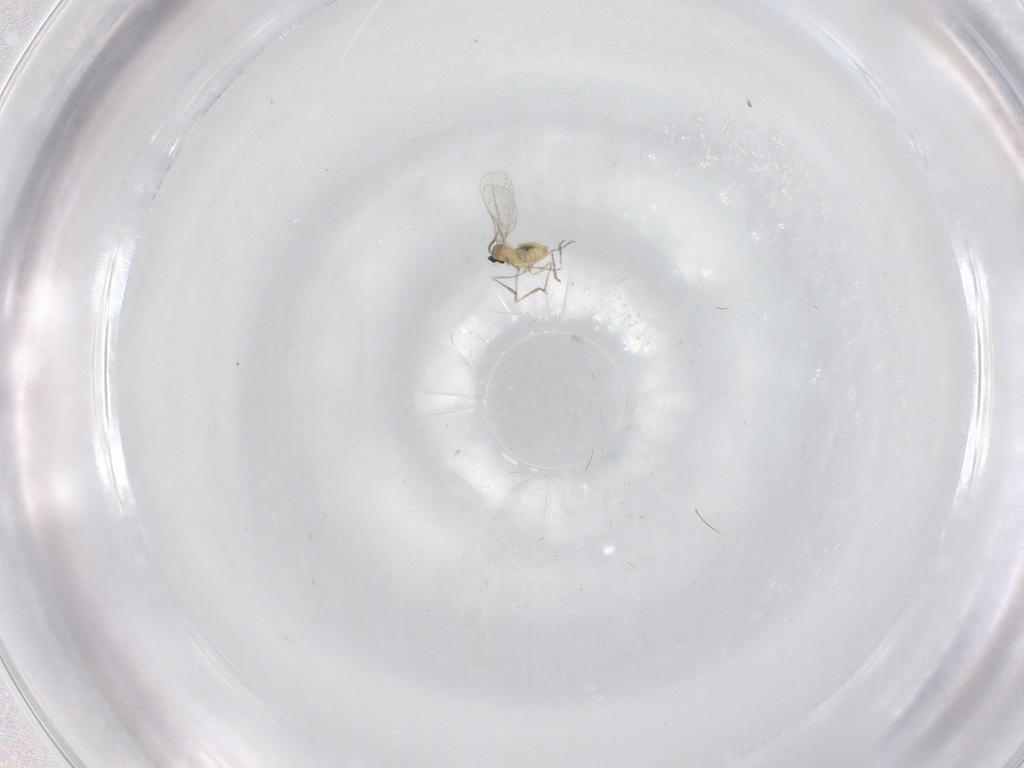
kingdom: Animalia
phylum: Arthropoda
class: Insecta
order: Diptera
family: Cecidomyiidae
